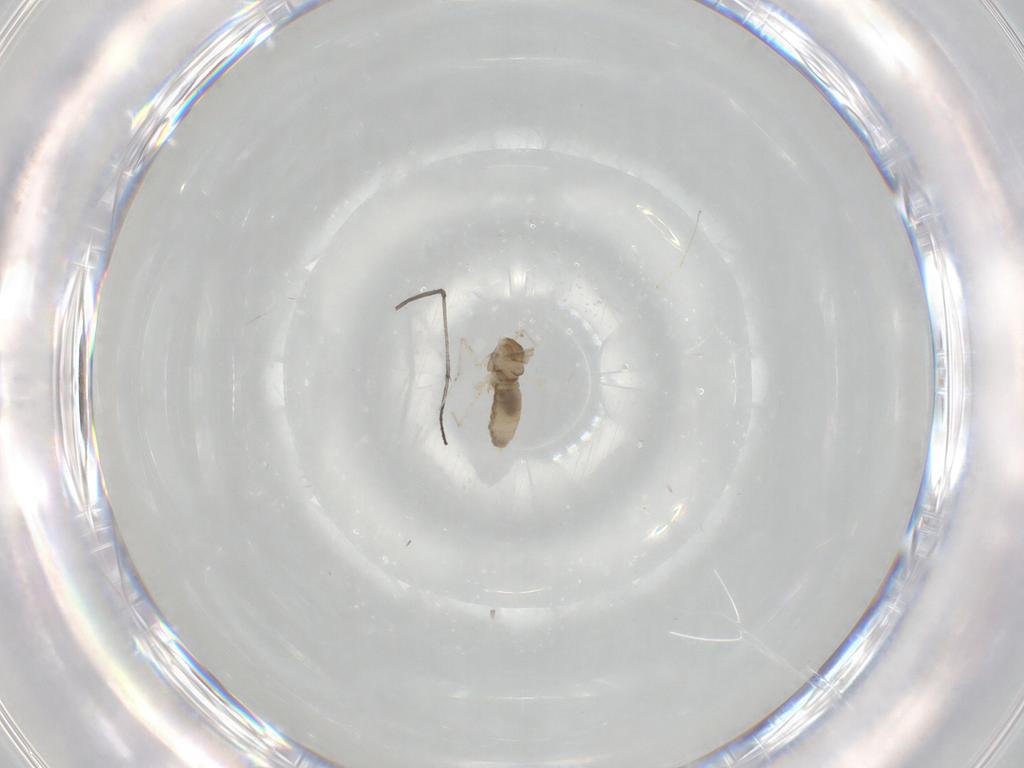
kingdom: Animalia
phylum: Arthropoda
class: Insecta
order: Diptera
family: Cecidomyiidae
